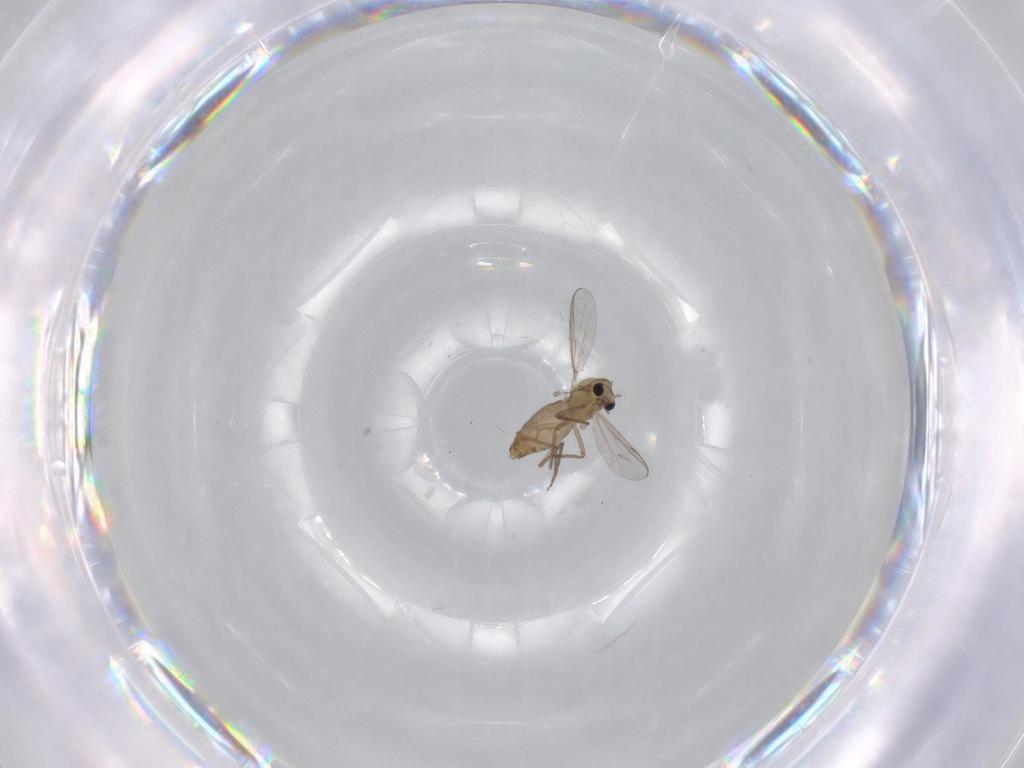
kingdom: Animalia
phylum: Arthropoda
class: Insecta
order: Diptera
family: Chironomidae
